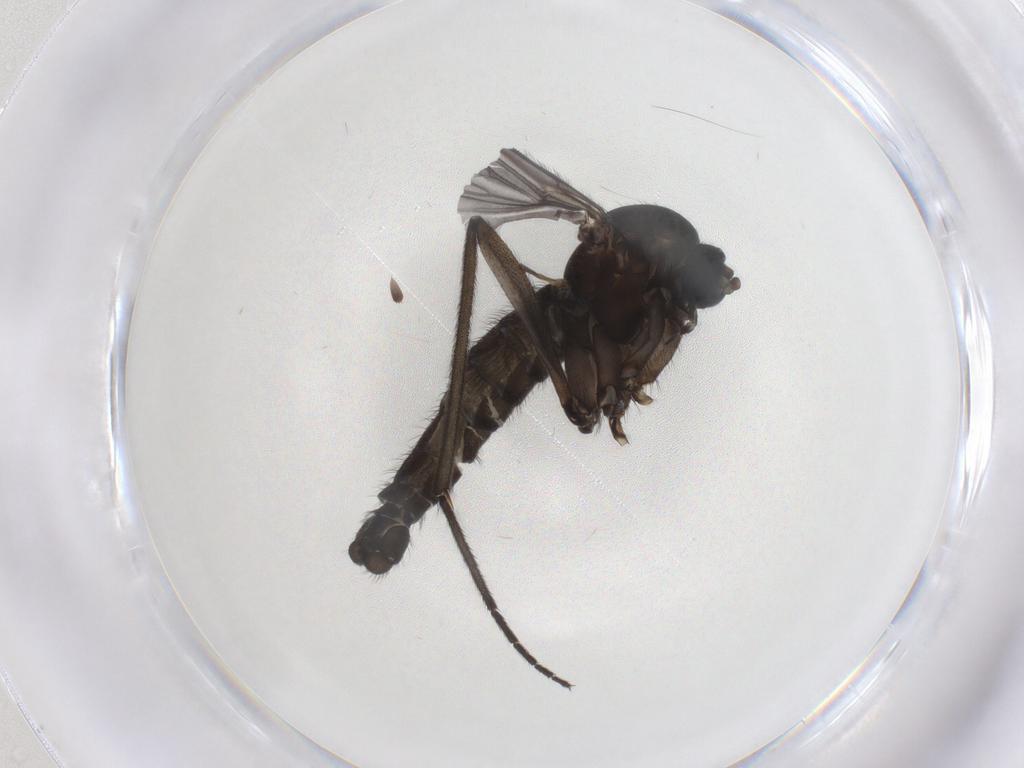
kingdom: Animalia
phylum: Arthropoda
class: Insecta
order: Diptera
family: Sciaridae
